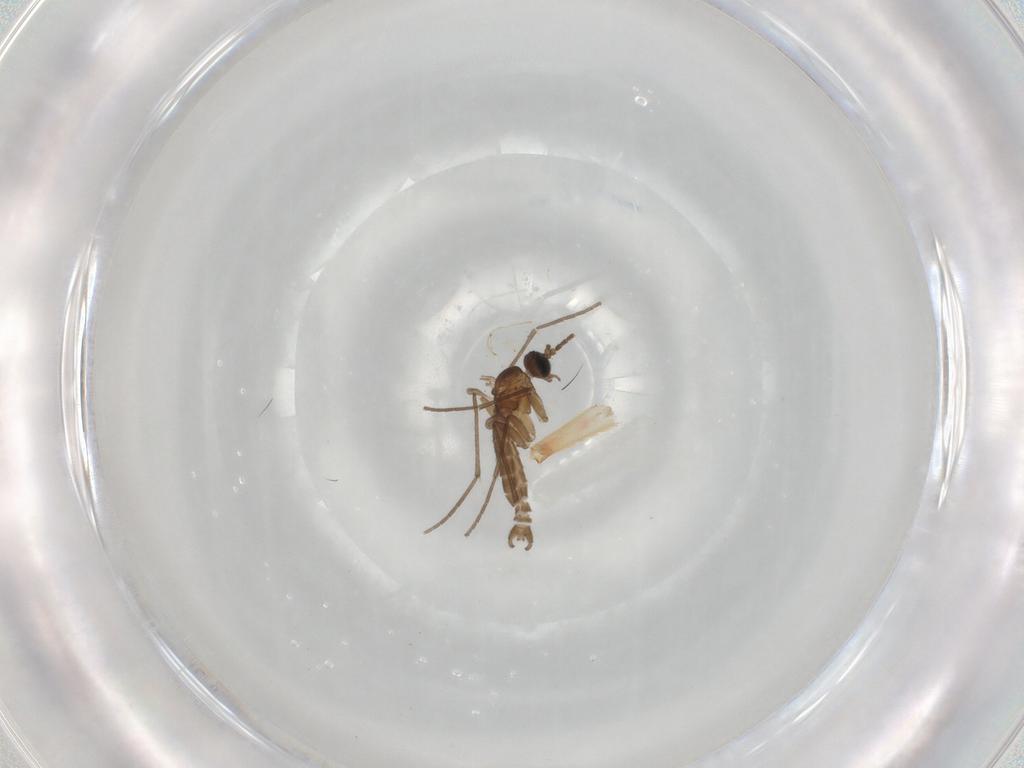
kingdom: Animalia
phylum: Arthropoda
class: Insecta
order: Diptera
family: Sciaridae
